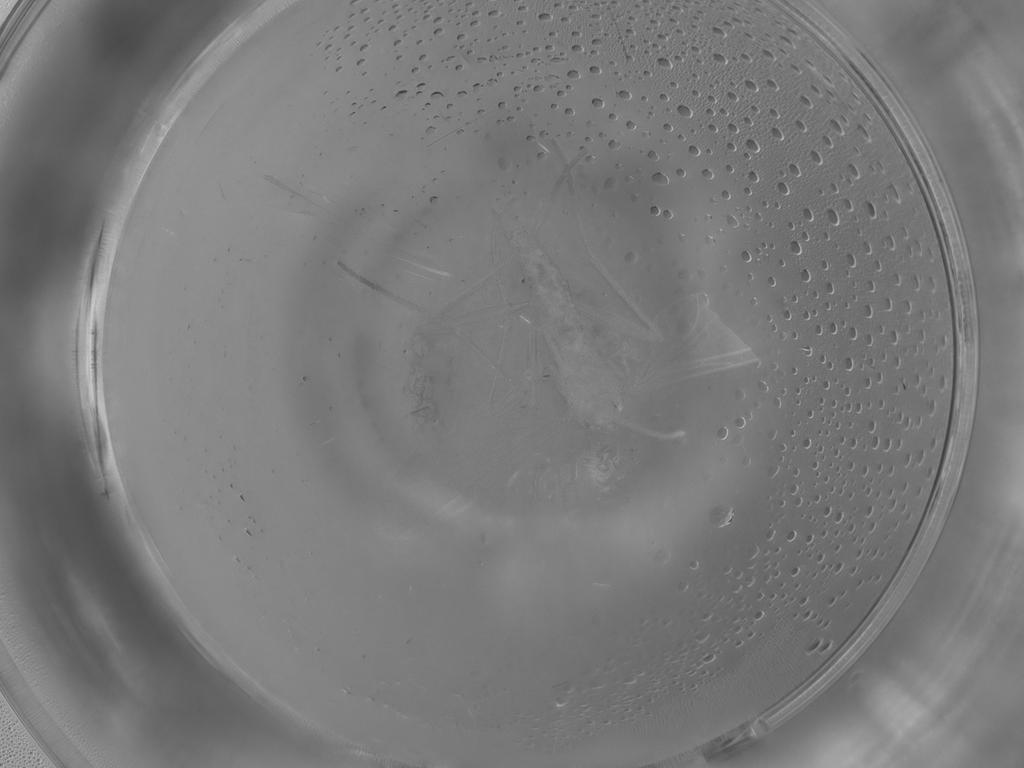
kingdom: Animalia
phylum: Arthropoda
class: Insecta
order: Diptera
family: Sciaridae
